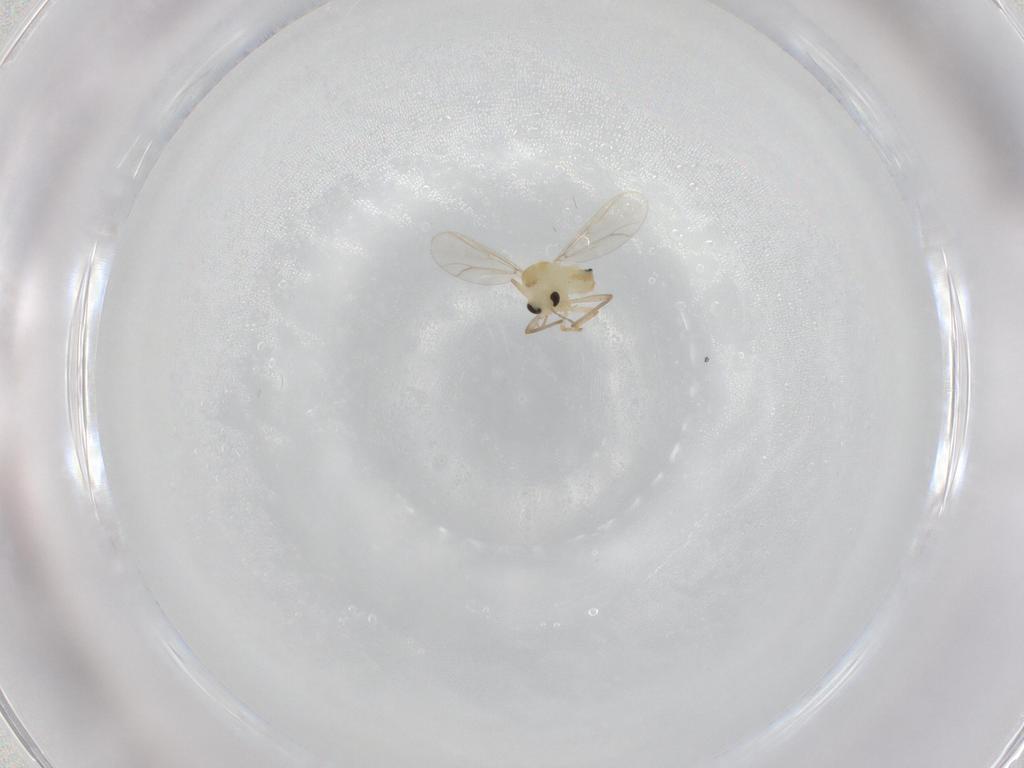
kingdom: Animalia
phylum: Arthropoda
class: Insecta
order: Diptera
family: Chironomidae
